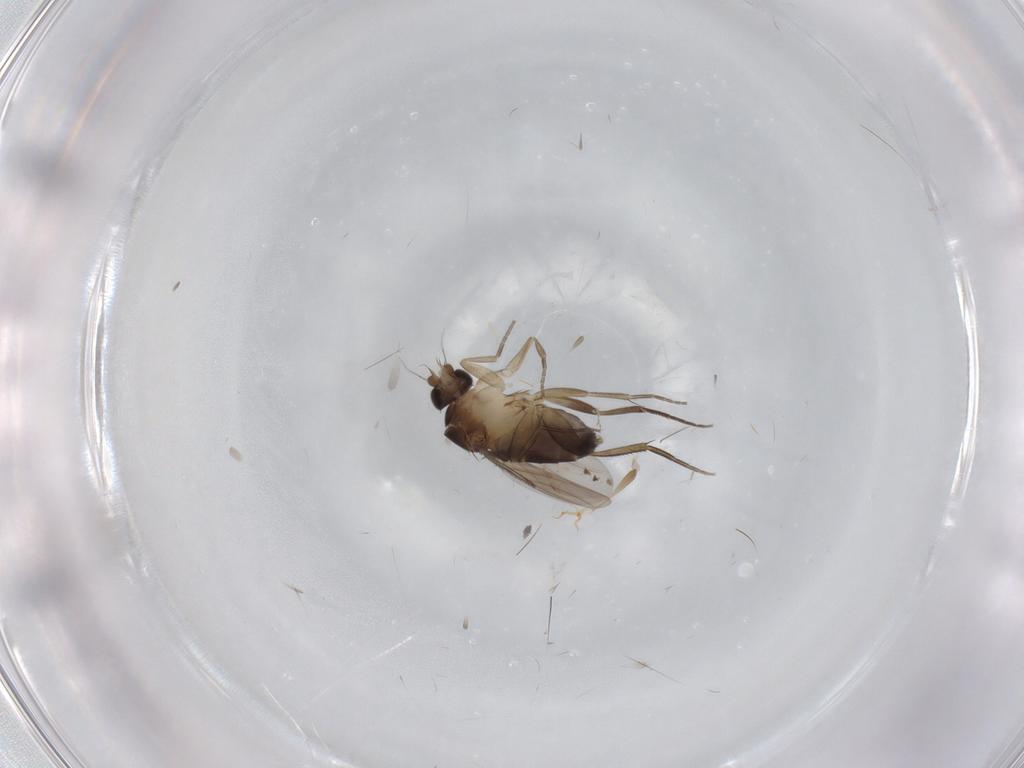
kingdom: Animalia
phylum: Arthropoda
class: Insecta
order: Diptera
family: Phoridae
